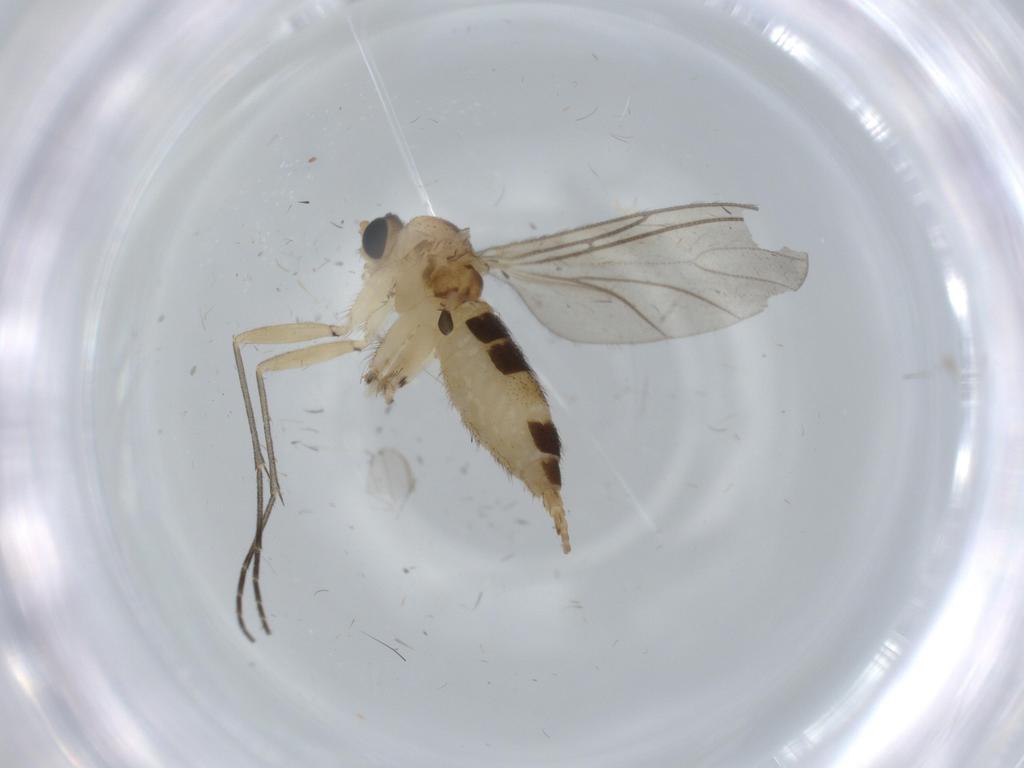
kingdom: Animalia
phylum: Arthropoda
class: Insecta
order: Diptera
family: Sciaridae
